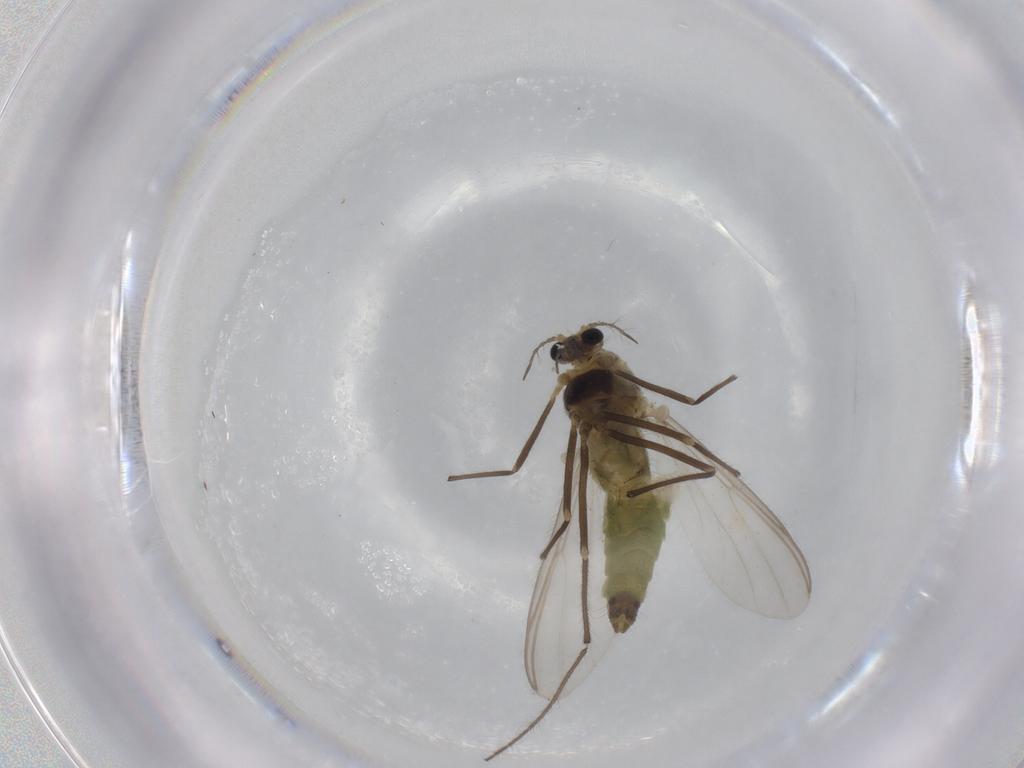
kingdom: Animalia
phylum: Arthropoda
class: Insecta
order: Diptera
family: Chironomidae
